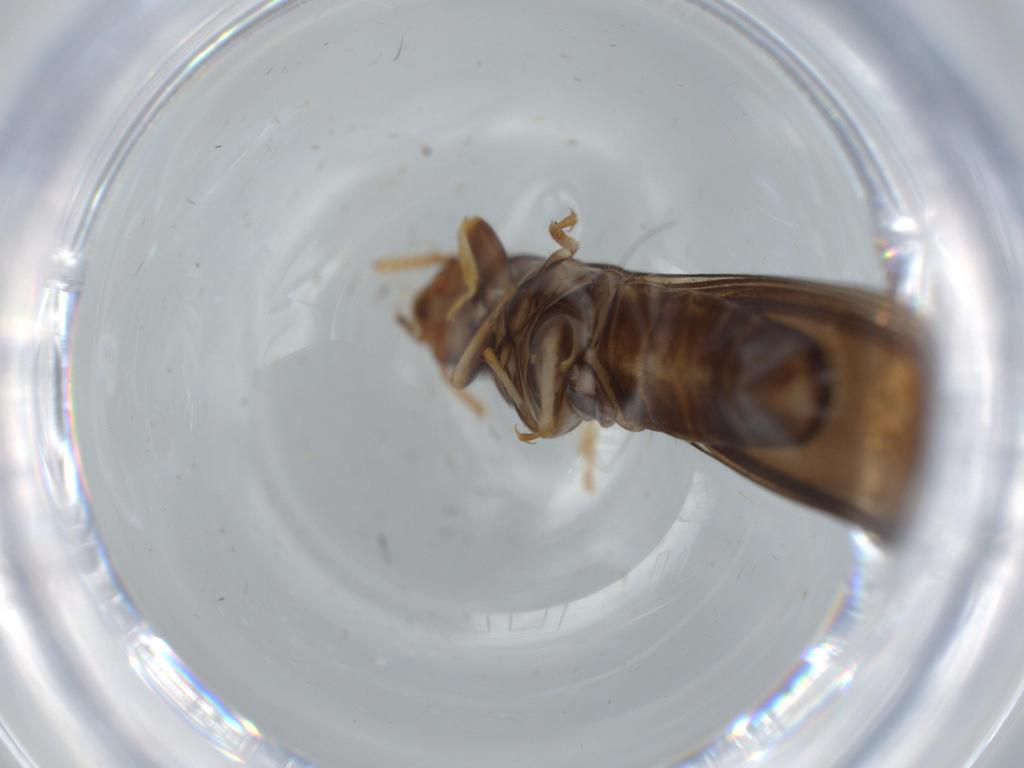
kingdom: Animalia
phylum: Arthropoda
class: Insecta
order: Blattodea
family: Ectobiidae
